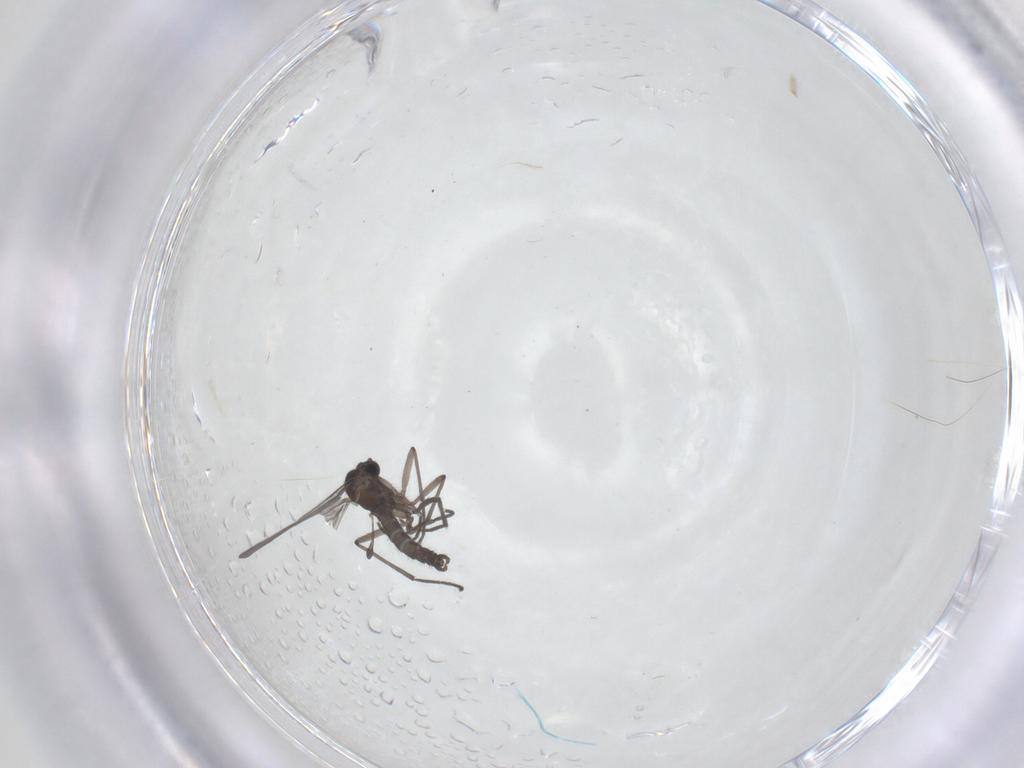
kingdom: Animalia
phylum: Arthropoda
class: Insecta
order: Diptera
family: Sciaridae
